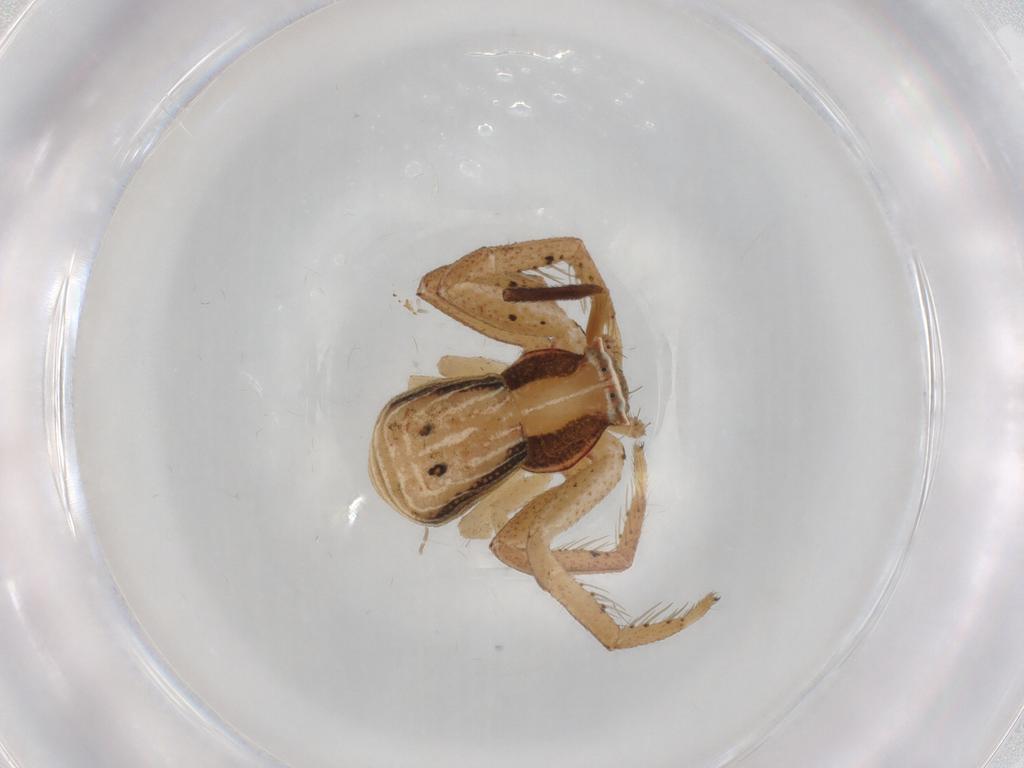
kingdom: Animalia
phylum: Arthropoda
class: Arachnida
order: Araneae
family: Thomisidae
